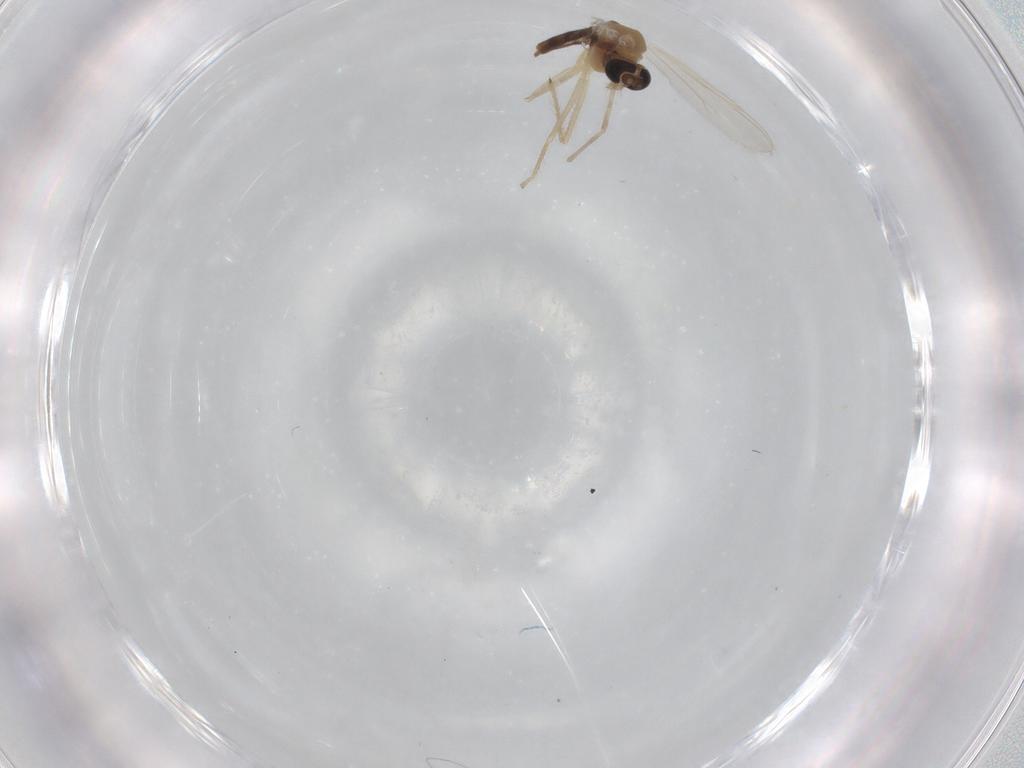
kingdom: Animalia
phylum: Arthropoda
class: Insecta
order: Diptera
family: Chironomidae
